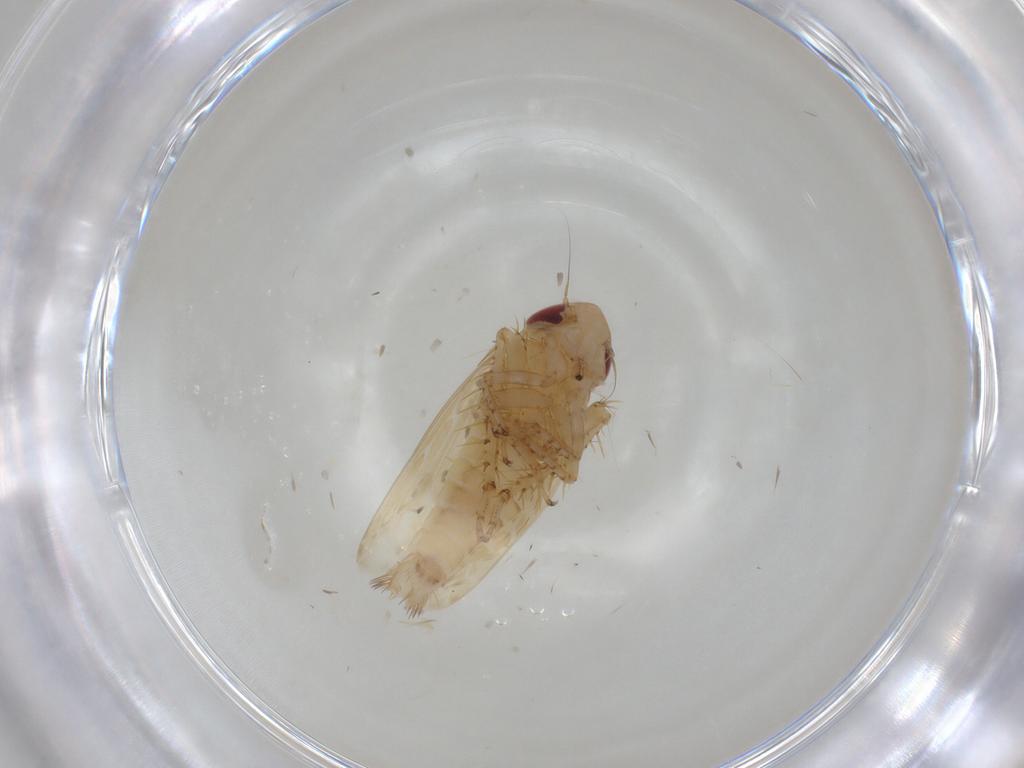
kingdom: Animalia
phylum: Arthropoda
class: Insecta
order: Hemiptera
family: Cicadellidae
